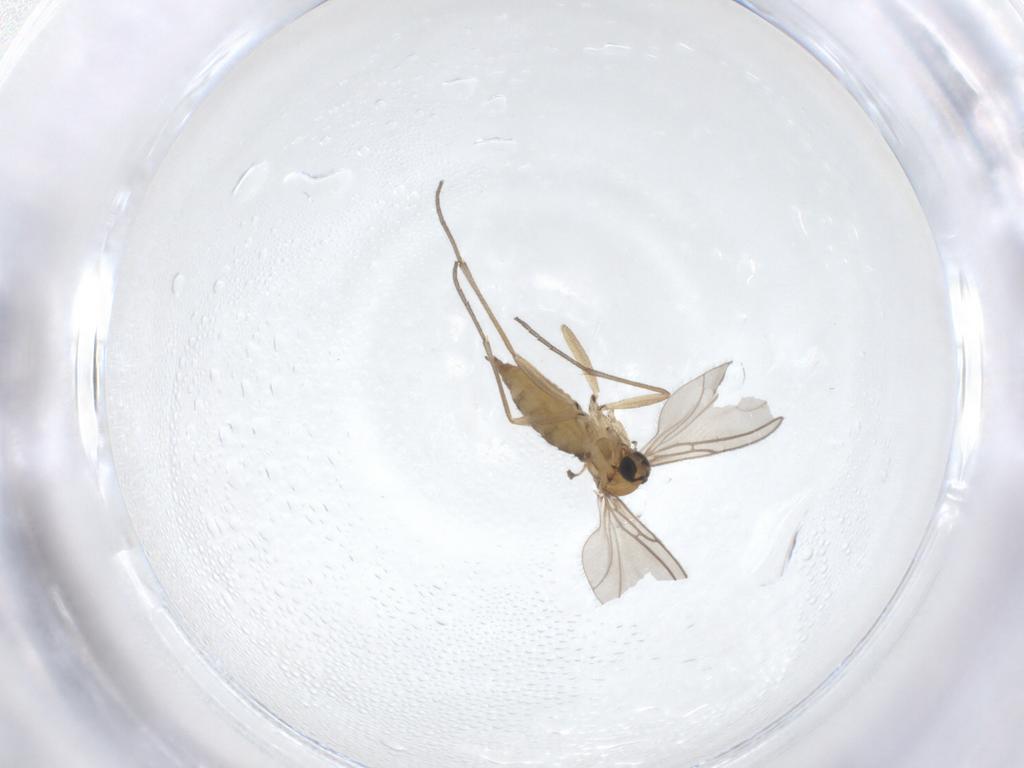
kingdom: Animalia
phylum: Arthropoda
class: Insecta
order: Diptera
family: Sciaridae
